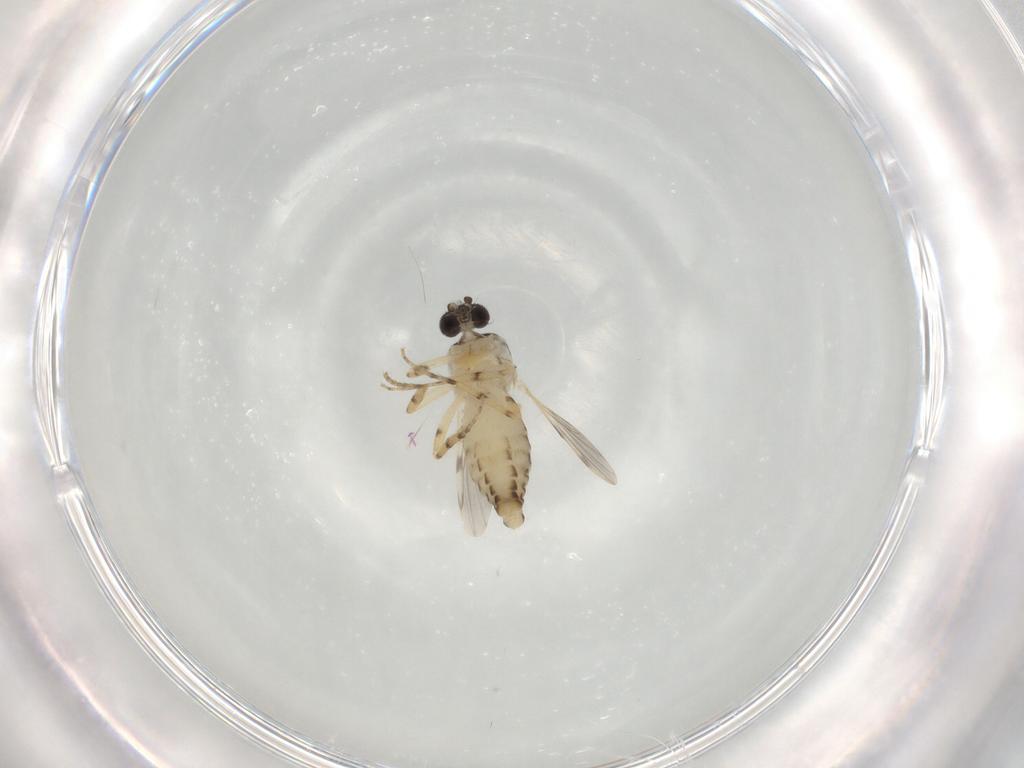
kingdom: Animalia
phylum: Arthropoda
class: Insecta
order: Diptera
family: Ceratopogonidae
